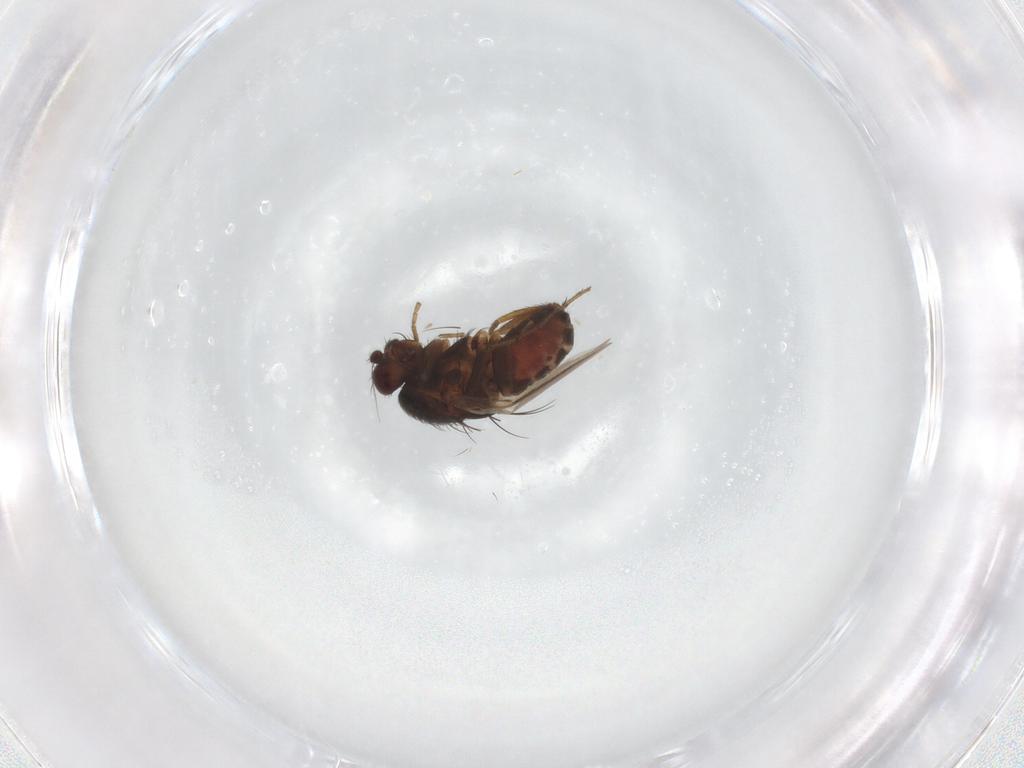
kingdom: Animalia
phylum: Arthropoda
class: Insecta
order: Diptera
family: Sphaeroceridae
